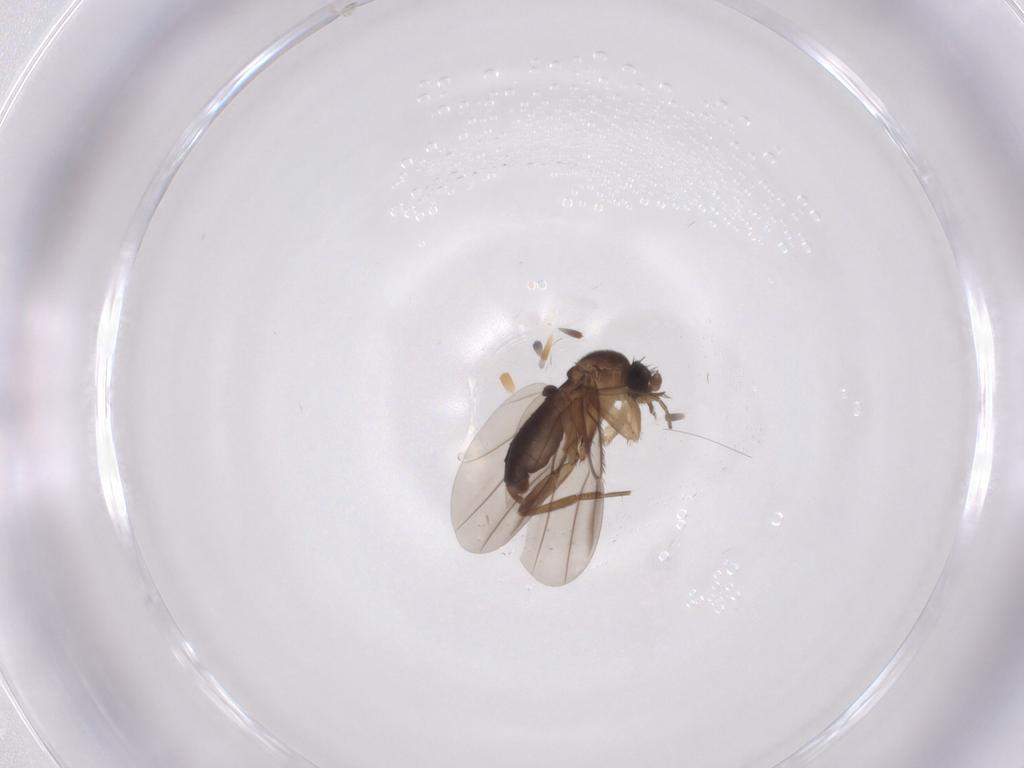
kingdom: Animalia
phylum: Arthropoda
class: Insecta
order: Diptera
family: Phoridae
